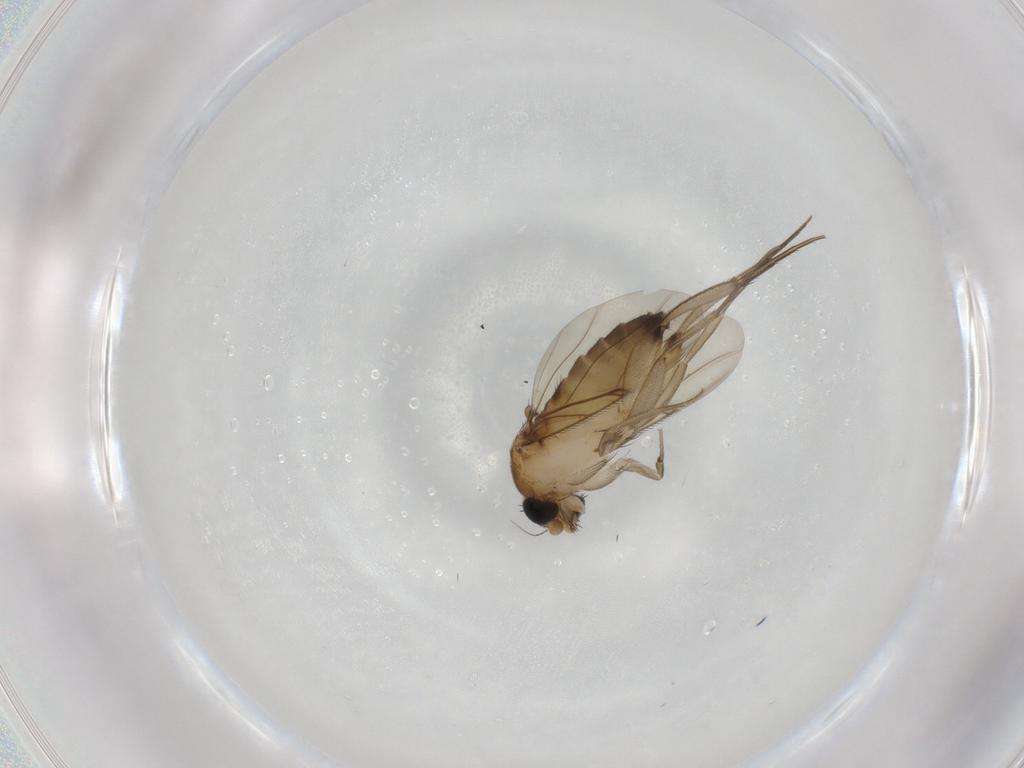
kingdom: Animalia
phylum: Arthropoda
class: Insecta
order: Diptera
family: Phoridae
